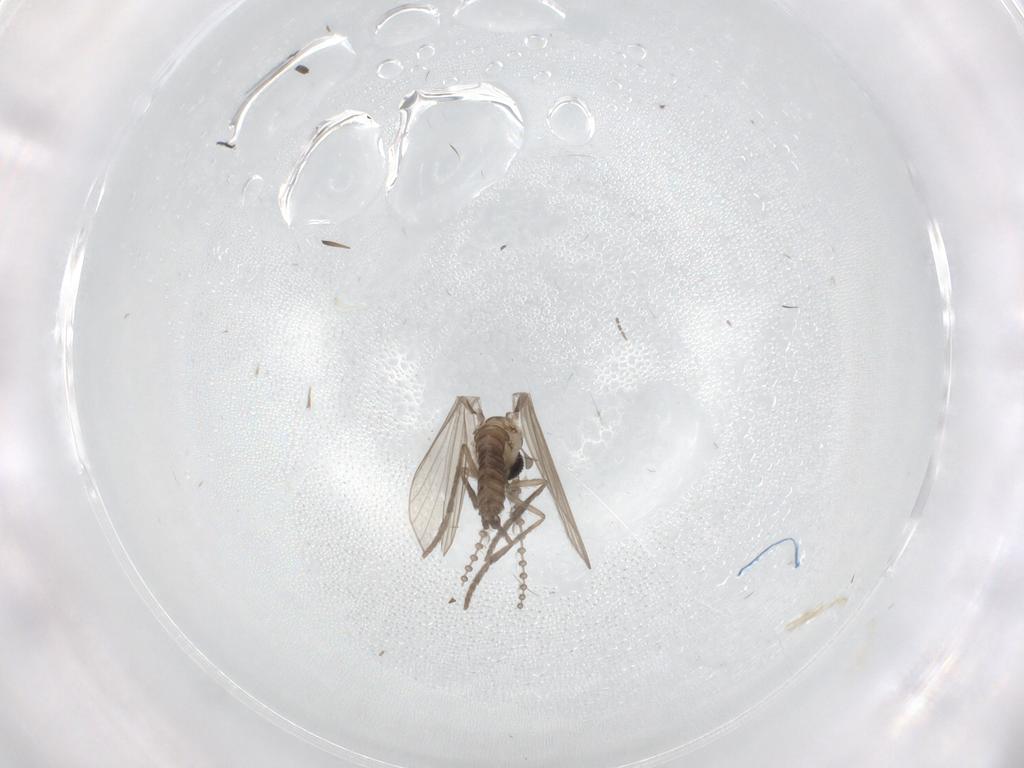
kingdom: Animalia
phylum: Arthropoda
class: Insecta
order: Diptera
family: Psychodidae
